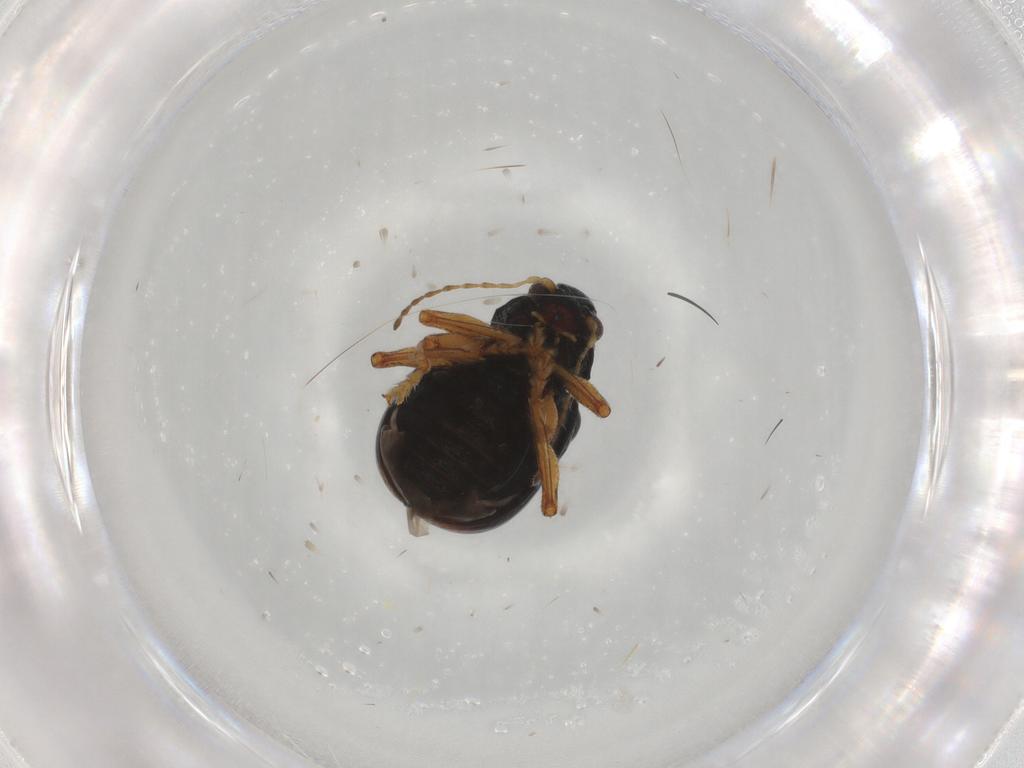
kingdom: Animalia
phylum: Arthropoda
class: Insecta
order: Coleoptera
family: Chrysomelidae
